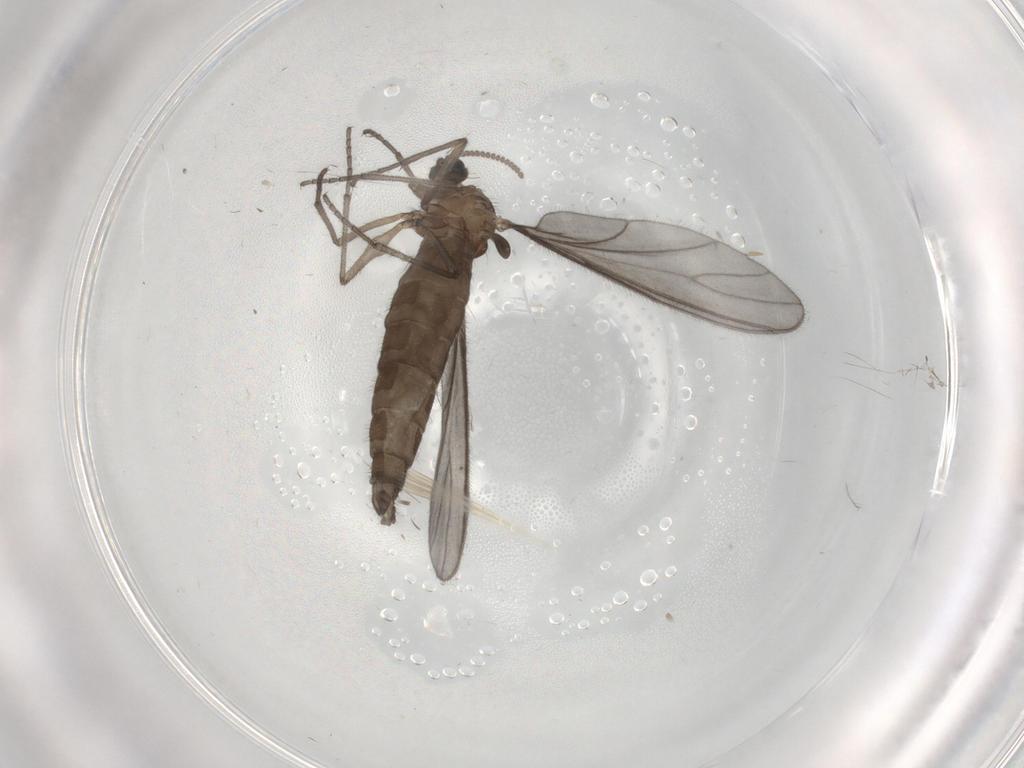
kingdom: Animalia
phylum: Arthropoda
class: Insecta
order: Diptera
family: Sciaridae
